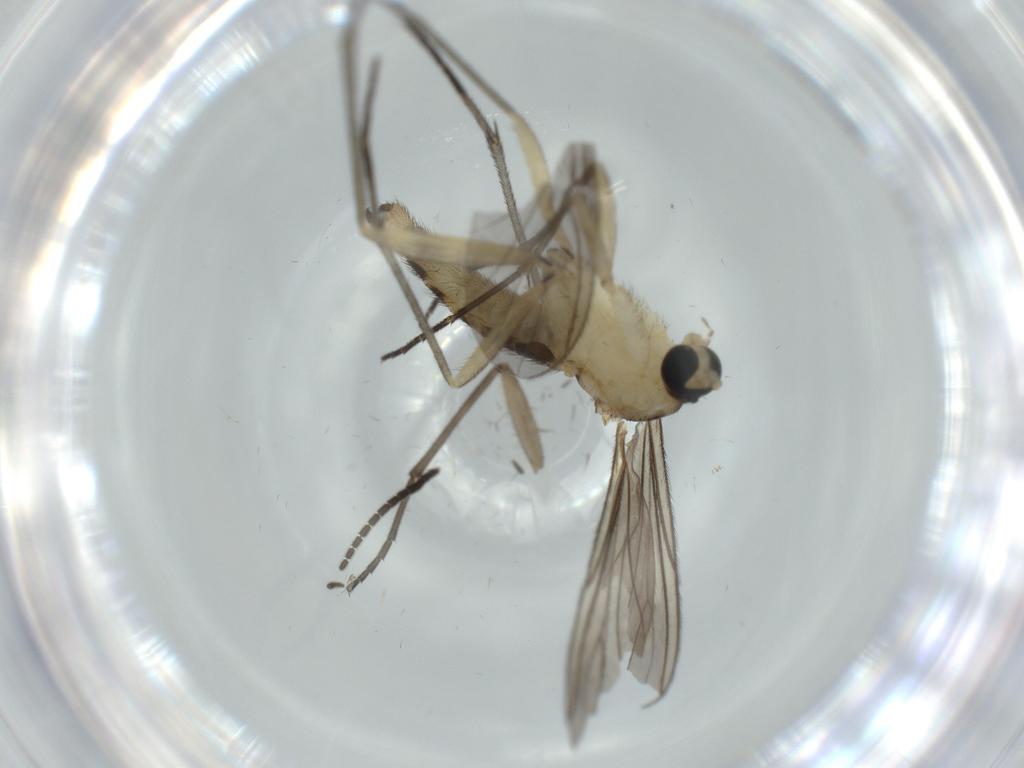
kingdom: Animalia
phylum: Arthropoda
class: Insecta
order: Diptera
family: Sciaridae
